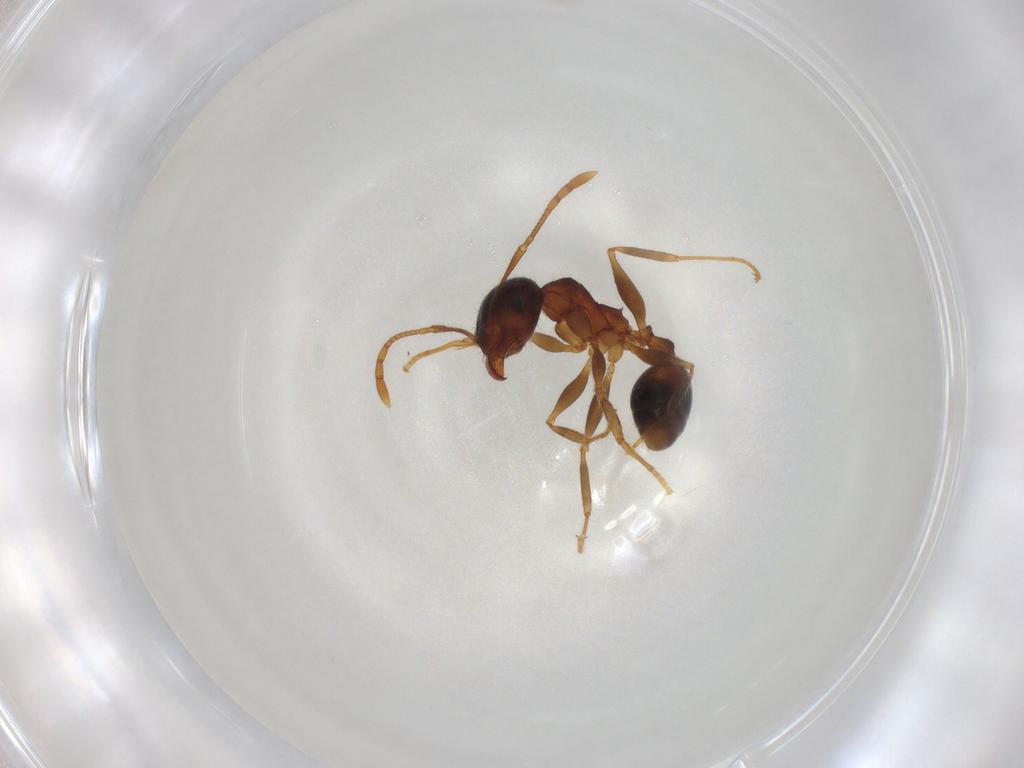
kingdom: Animalia
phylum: Arthropoda
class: Insecta
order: Hymenoptera
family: Formicidae
